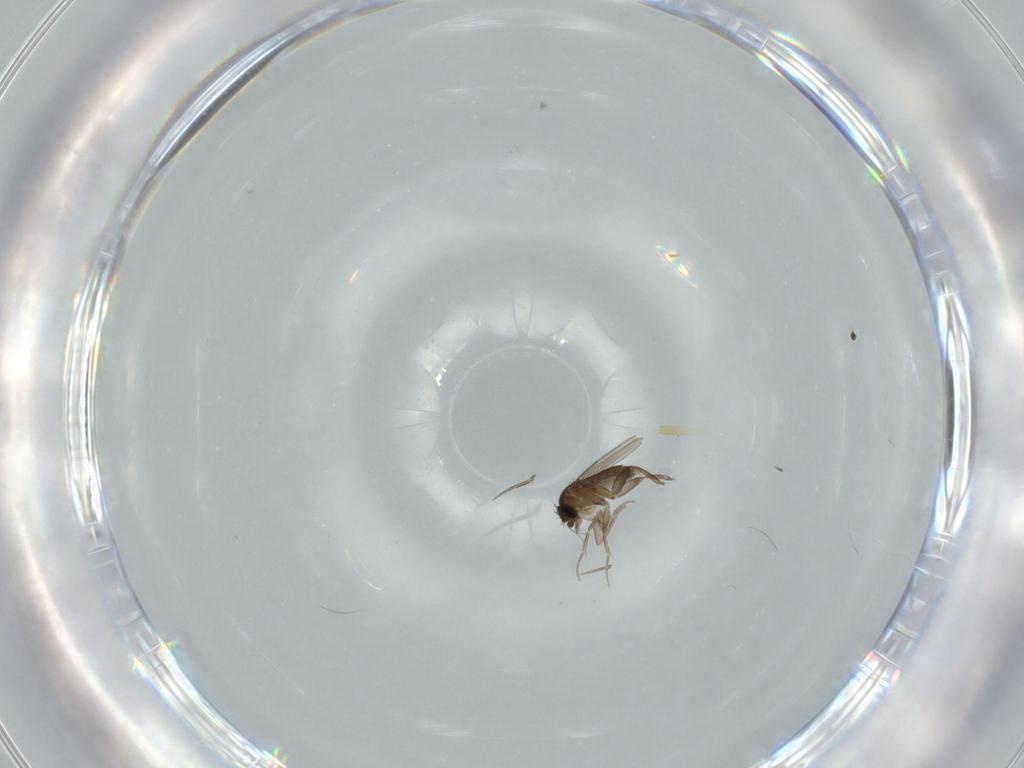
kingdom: Animalia
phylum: Arthropoda
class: Insecta
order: Diptera
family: Phoridae
